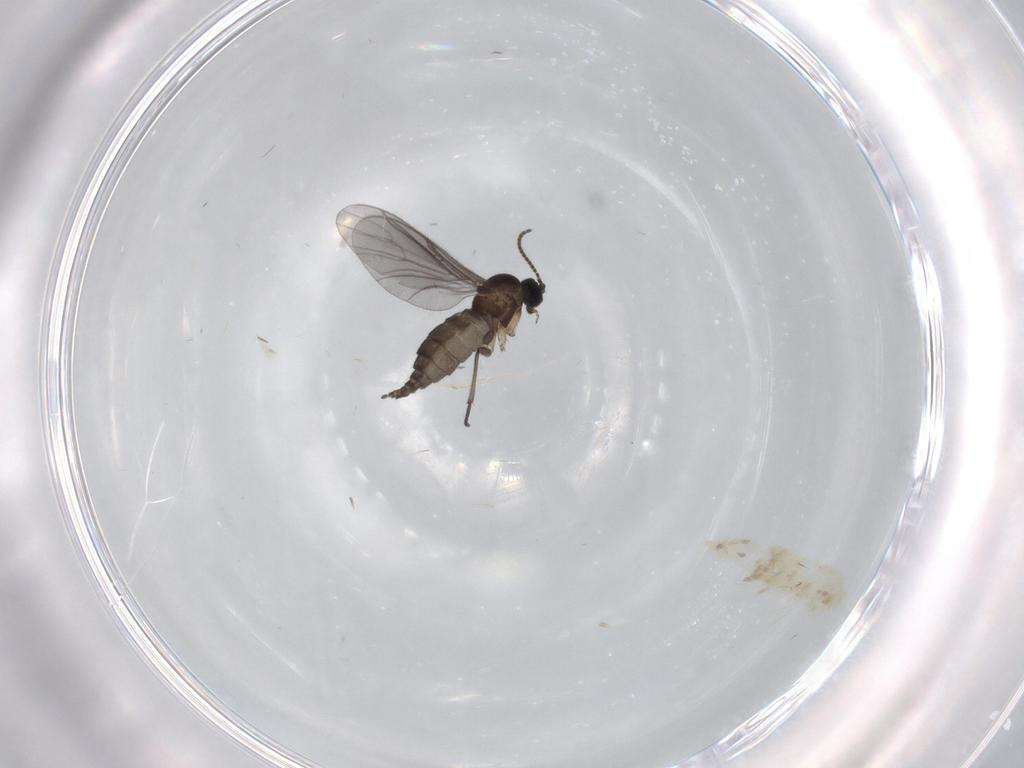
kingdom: Animalia
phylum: Arthropoda
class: Insecta
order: Diptera
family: Sciaridae
